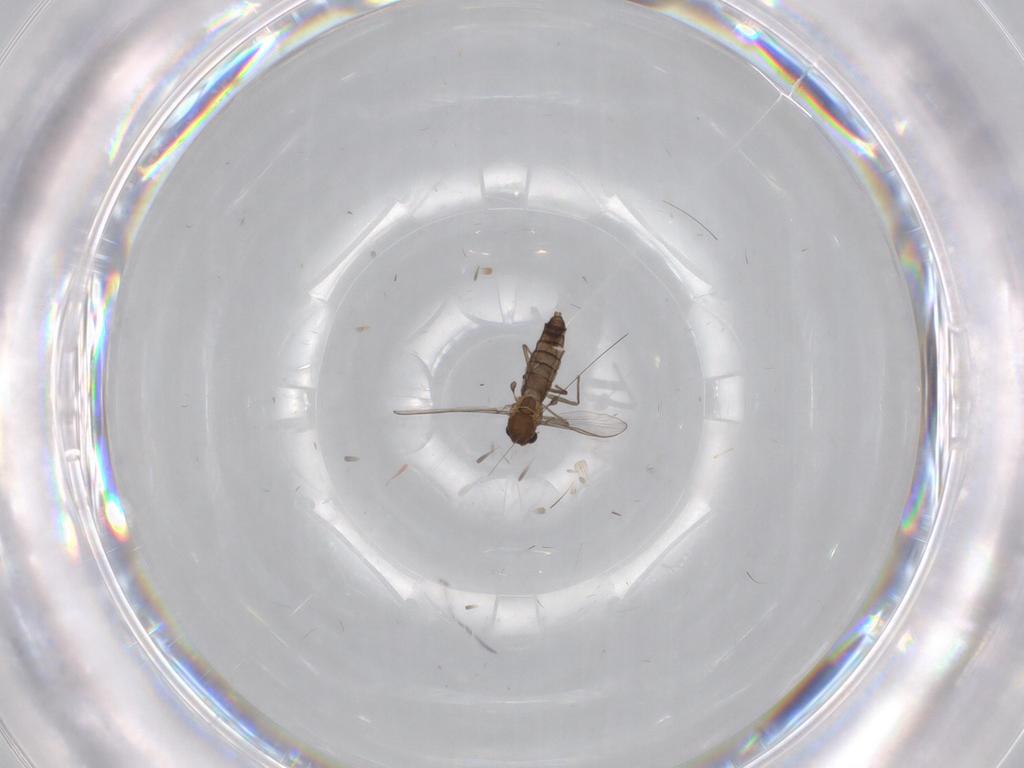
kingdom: Animalia
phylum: Arthropoda
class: Insecta
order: Diptera
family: Chironomidae
